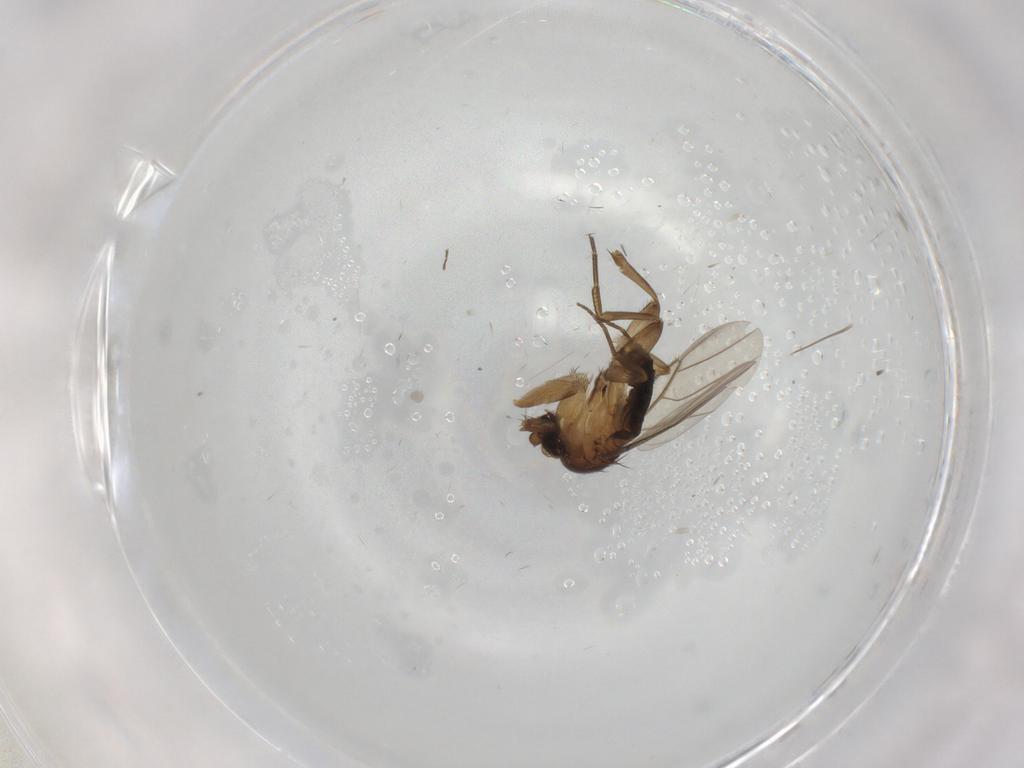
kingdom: Animalia
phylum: Arthropoda
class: Insecta
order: Diptera
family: Phoridae
